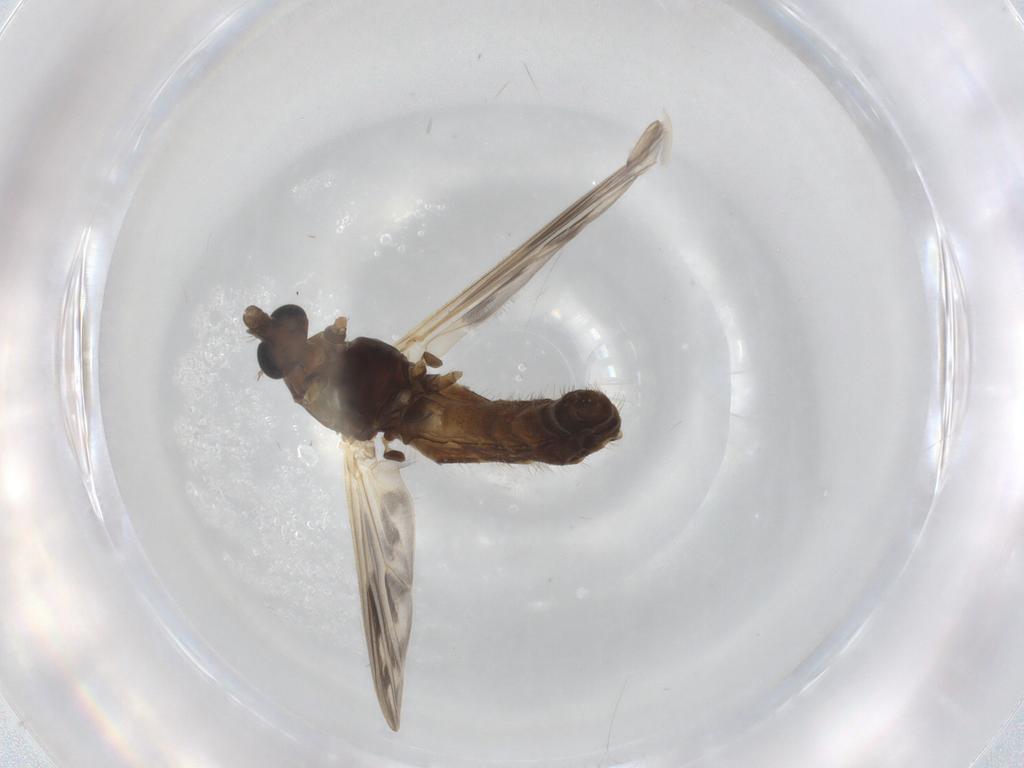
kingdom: Animalia
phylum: Arthropoda
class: Insecta
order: Diptera
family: Chironomidae
